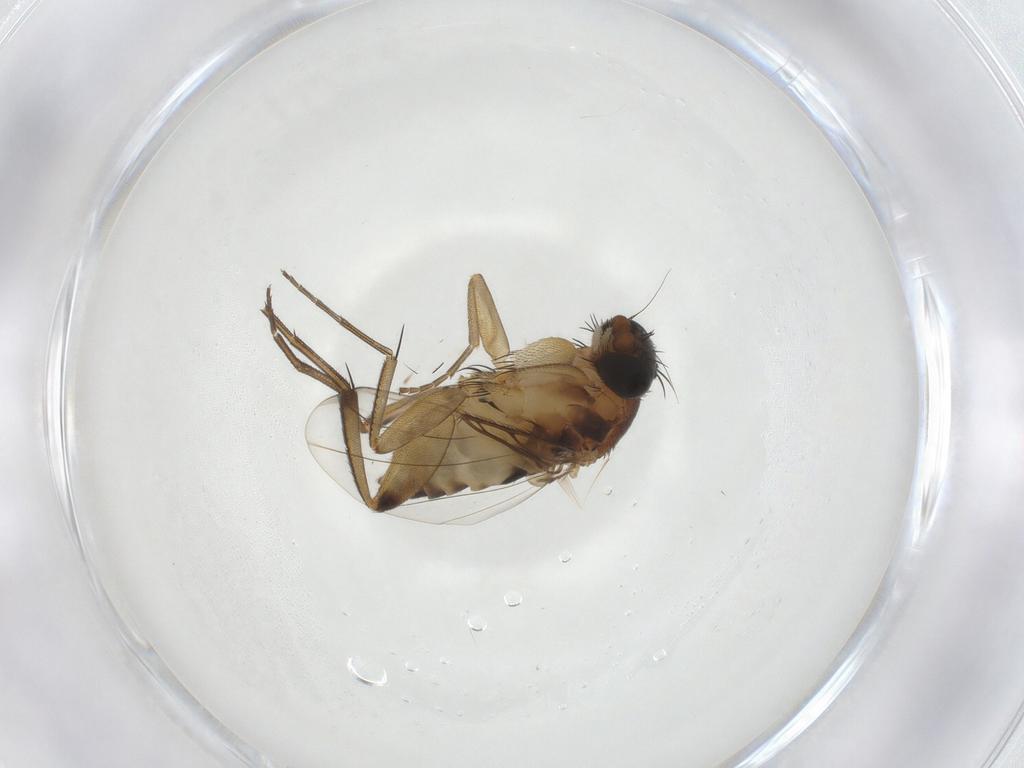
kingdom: Animalia
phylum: Arthropoda
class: Insecta
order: Diptera
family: Phoridae
